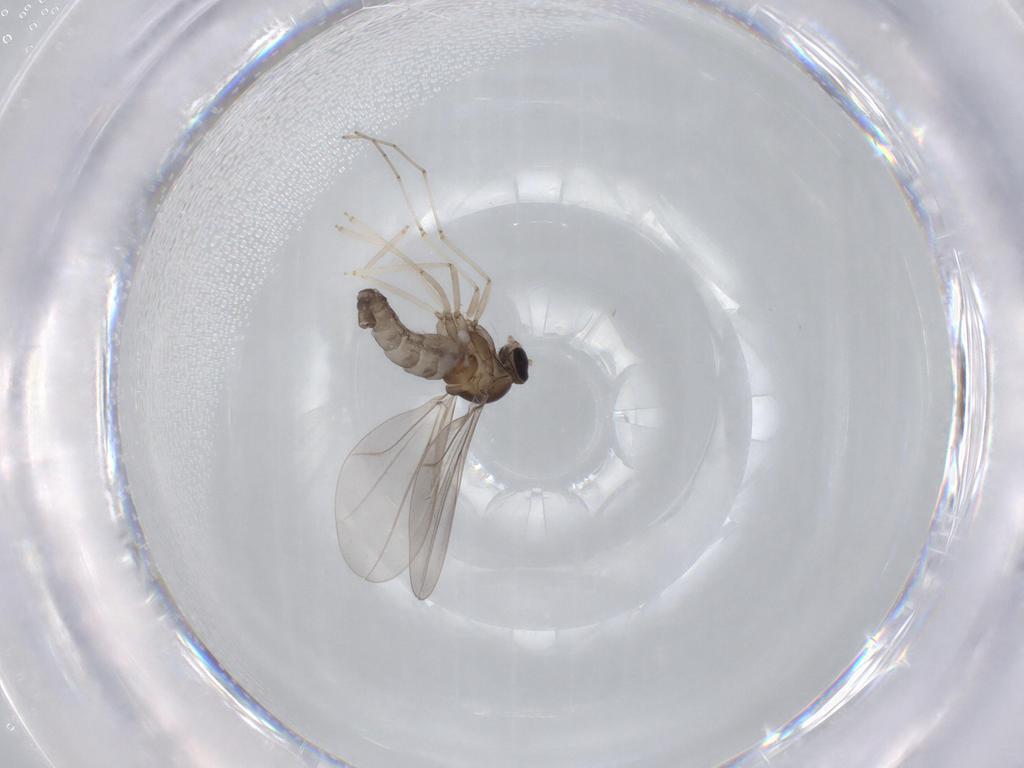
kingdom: Animalia
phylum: Arthropoda
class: Insecta
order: Diptera
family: Cecidomyiidae
